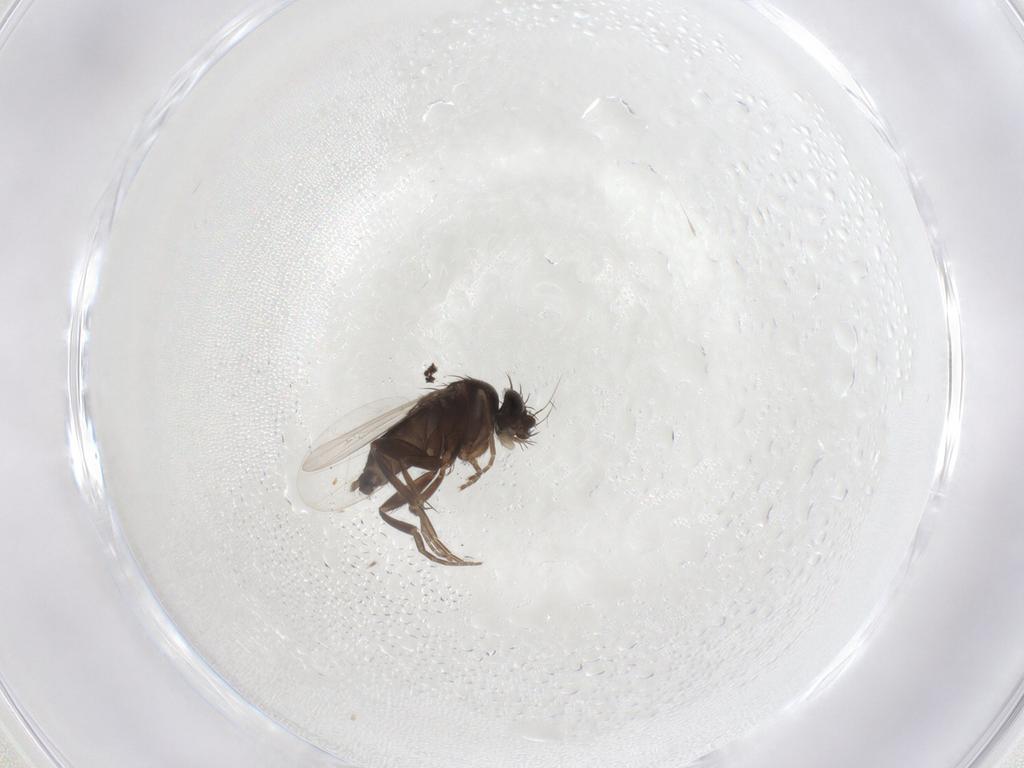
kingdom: Animalia
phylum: Arthropoda
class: Insecta
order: Diptera
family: Phoridae
